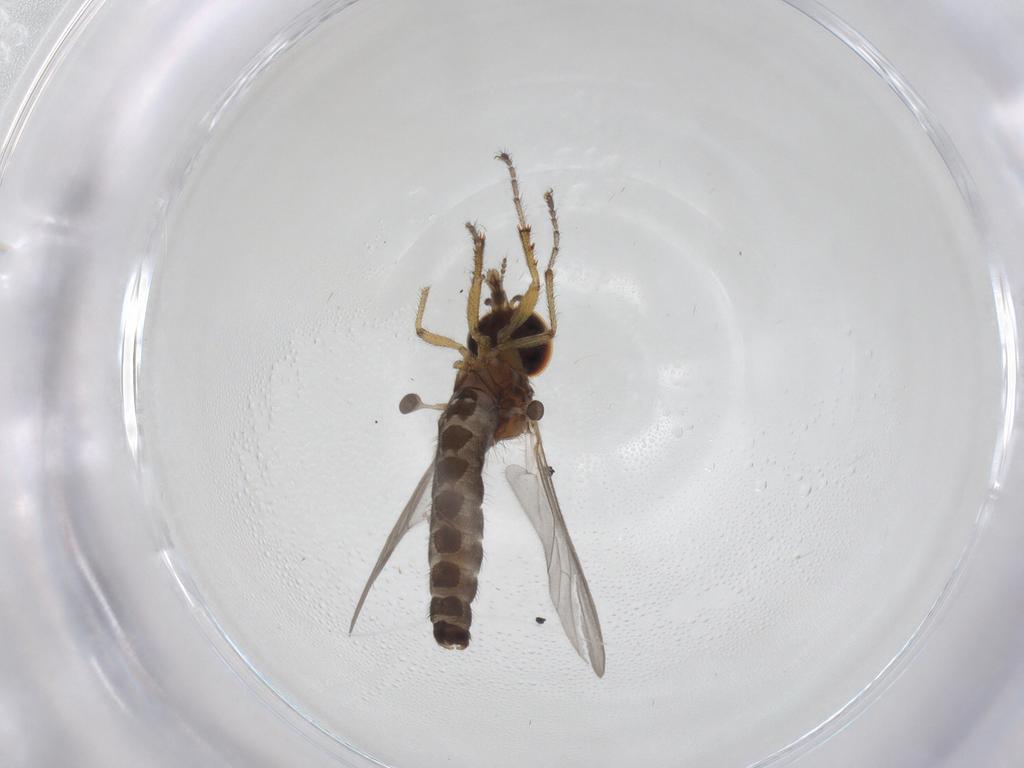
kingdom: Animalia
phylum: Arthropoda
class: Insecta
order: Diptera
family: Bibionidae
